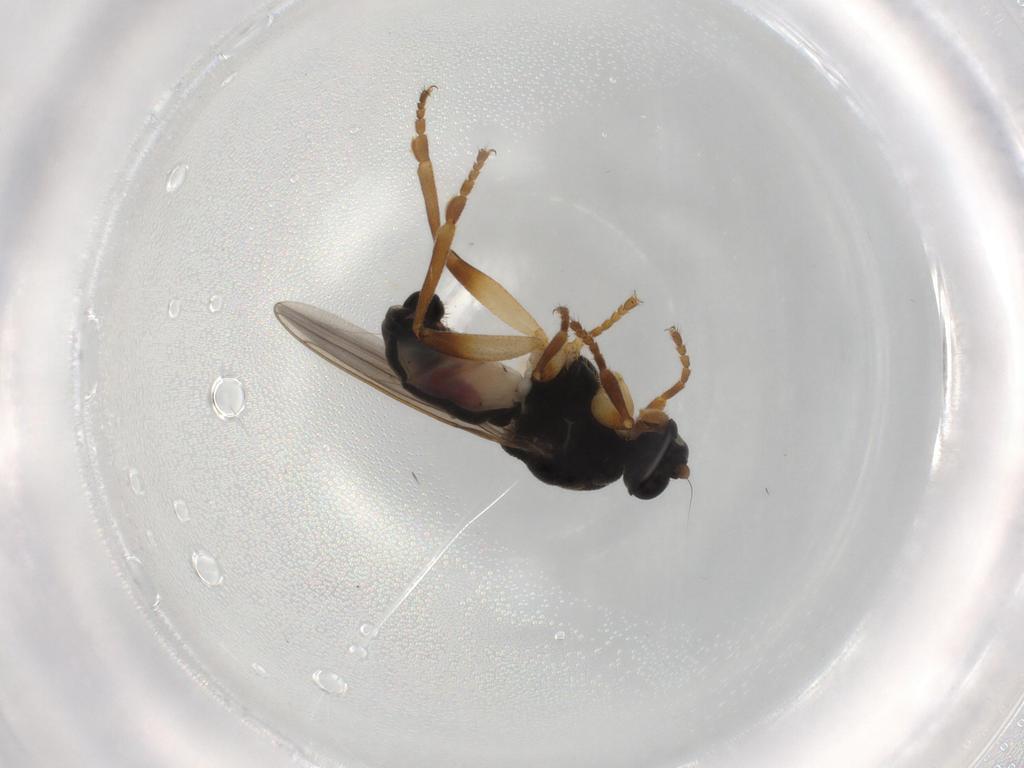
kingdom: Animalia
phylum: Arthropoda
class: Insecta
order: Diptera
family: Sphaeroceridae
